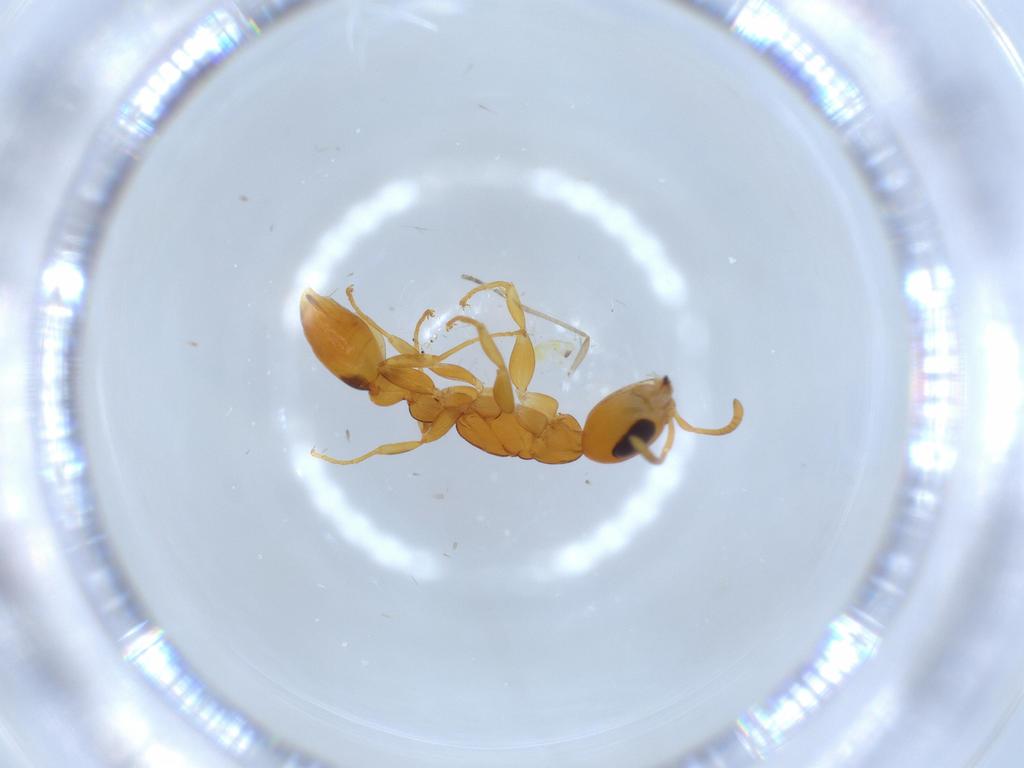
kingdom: Animalia
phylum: Arthropoda
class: Insecta
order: Hymenoptera
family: Formicidae
